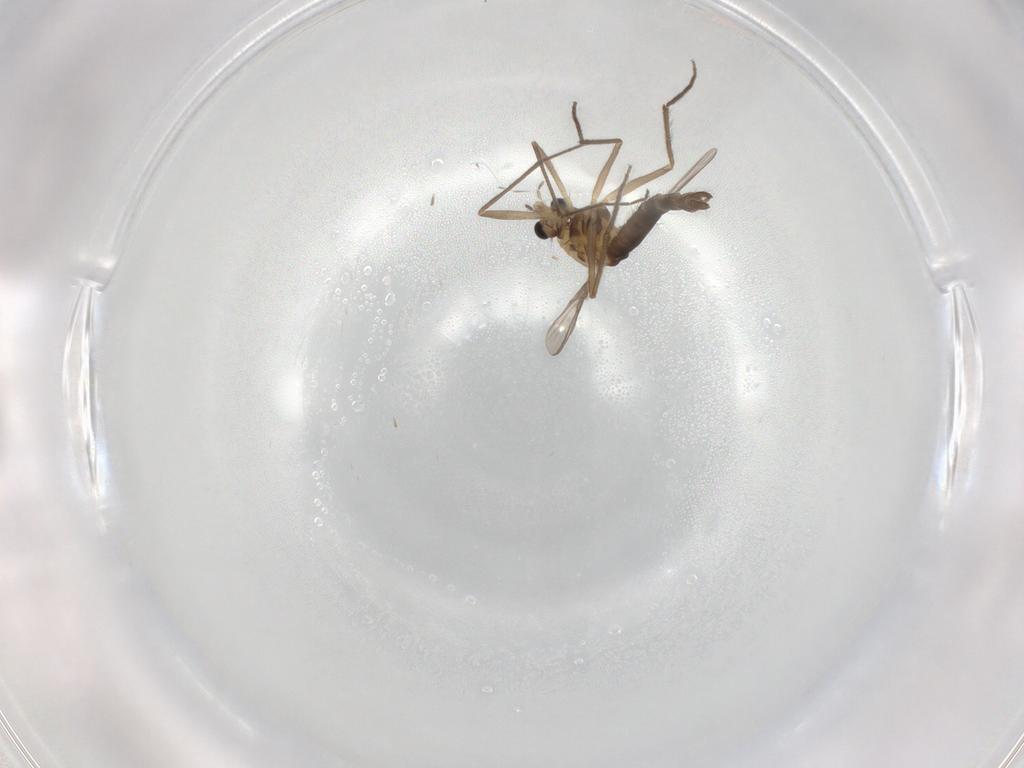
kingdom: Animalia
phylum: Arthropoda
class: Insecta
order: Diptera
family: Chironomidae
